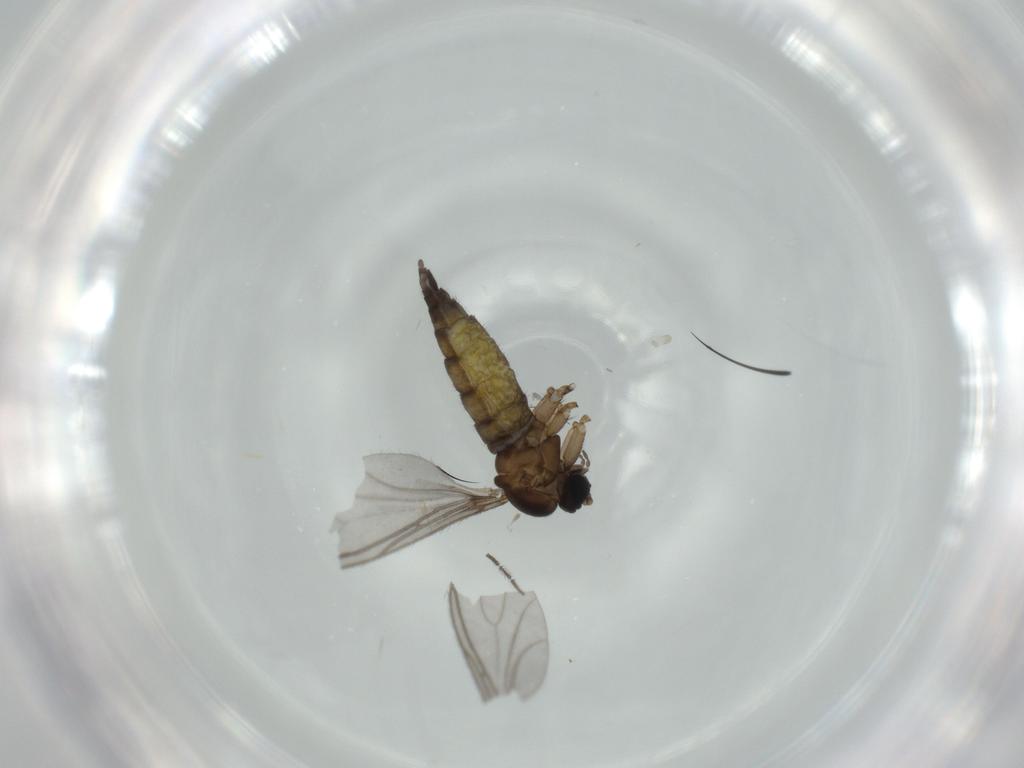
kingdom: Animalia
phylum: Arthropoda
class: Insecta
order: Diptera
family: Sciaridae
